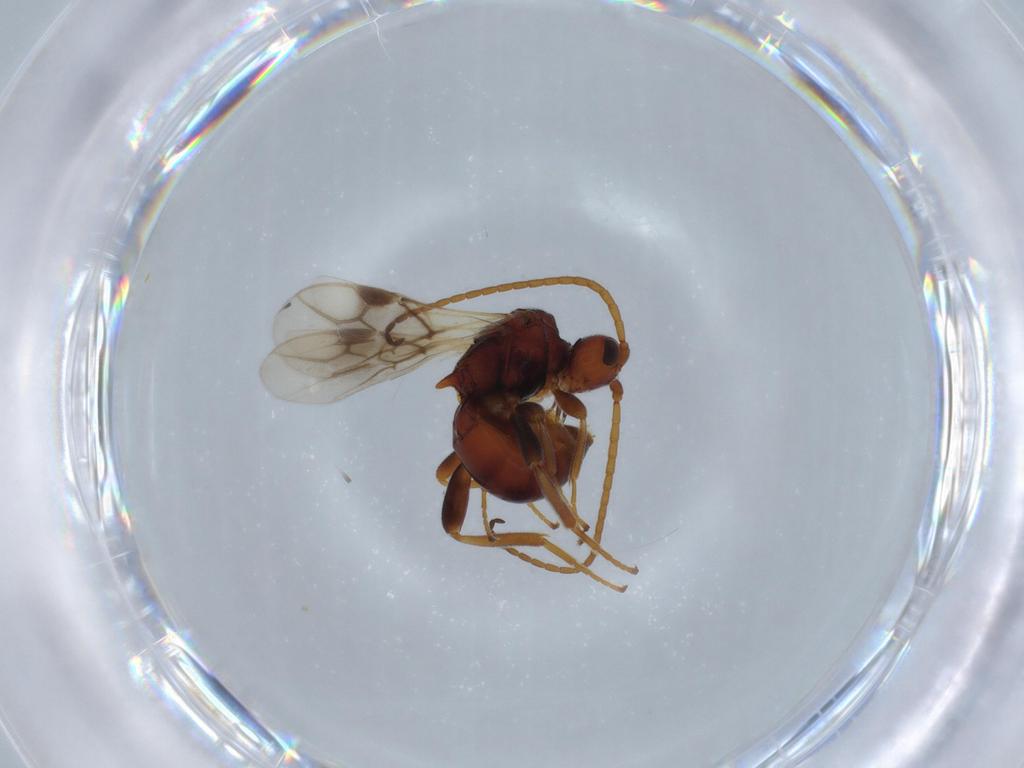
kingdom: Animalia
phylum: Arthropoda
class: Insecta
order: Hymenoptera
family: Braconidae
